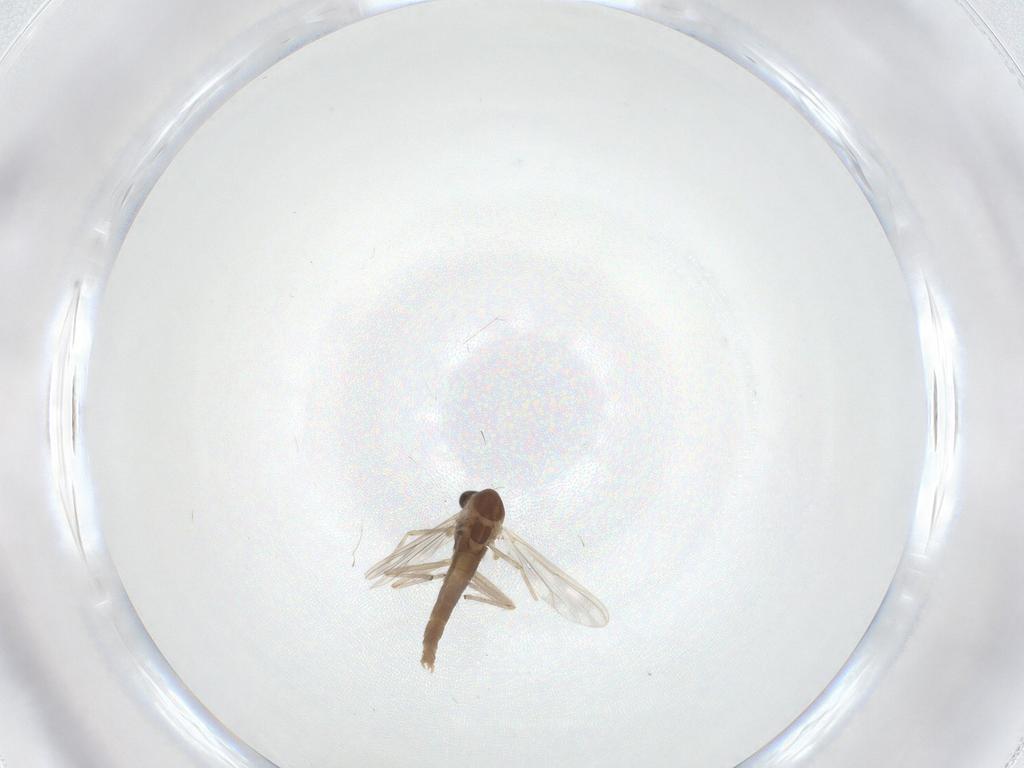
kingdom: Animalia
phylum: Arthropoda
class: Insecta
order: Diptera
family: Chironomidae
